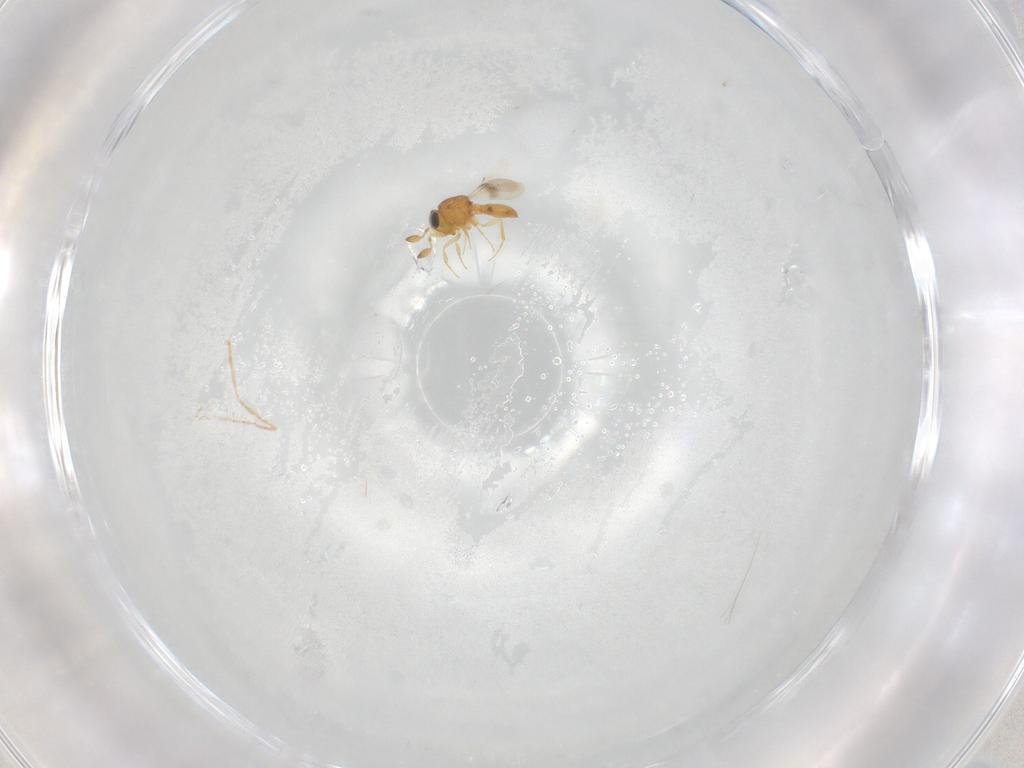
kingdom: Animalia
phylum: Arthropoda
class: Insecta
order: Hymenoptera
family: Scelionidae
